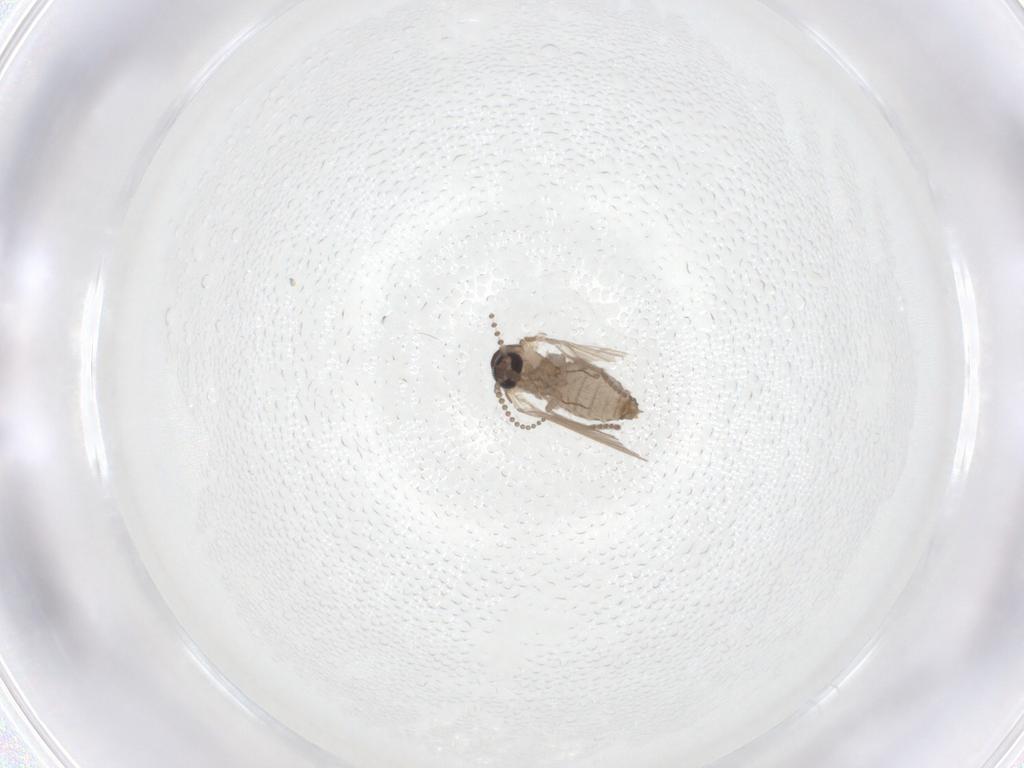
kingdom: Animalia
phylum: Arthropoda
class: Insecta
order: Diptera
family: Psychodidae
